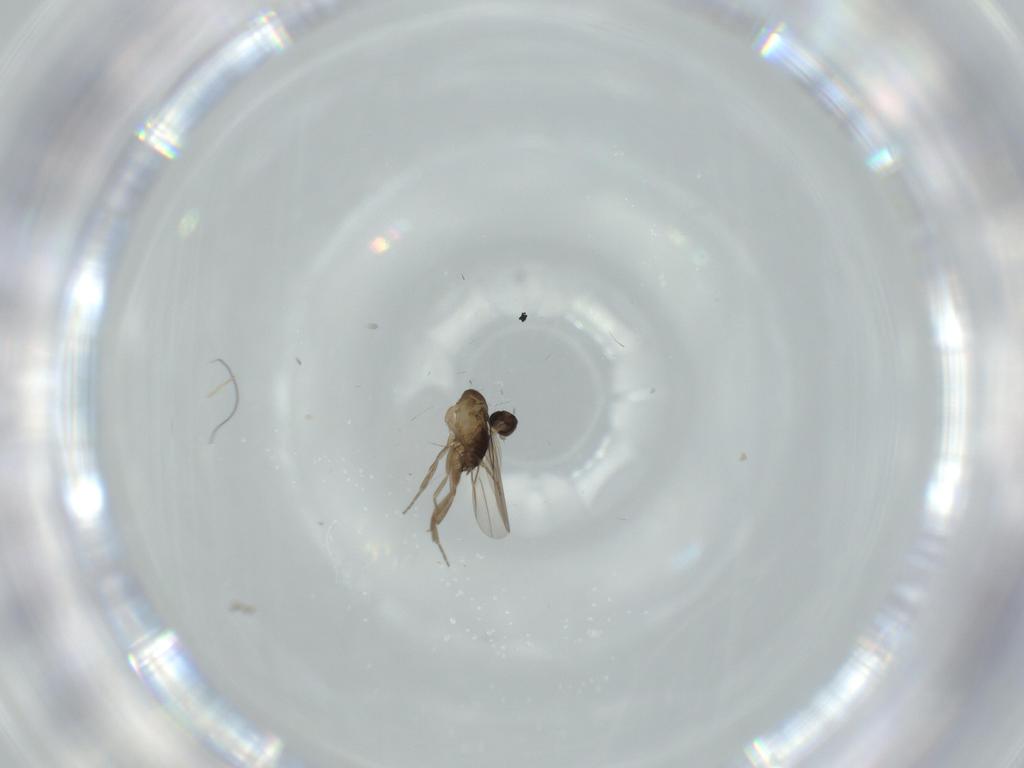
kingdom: Animalia
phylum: Arthropoda
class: Insecta
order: Diptera
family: Phoridae
